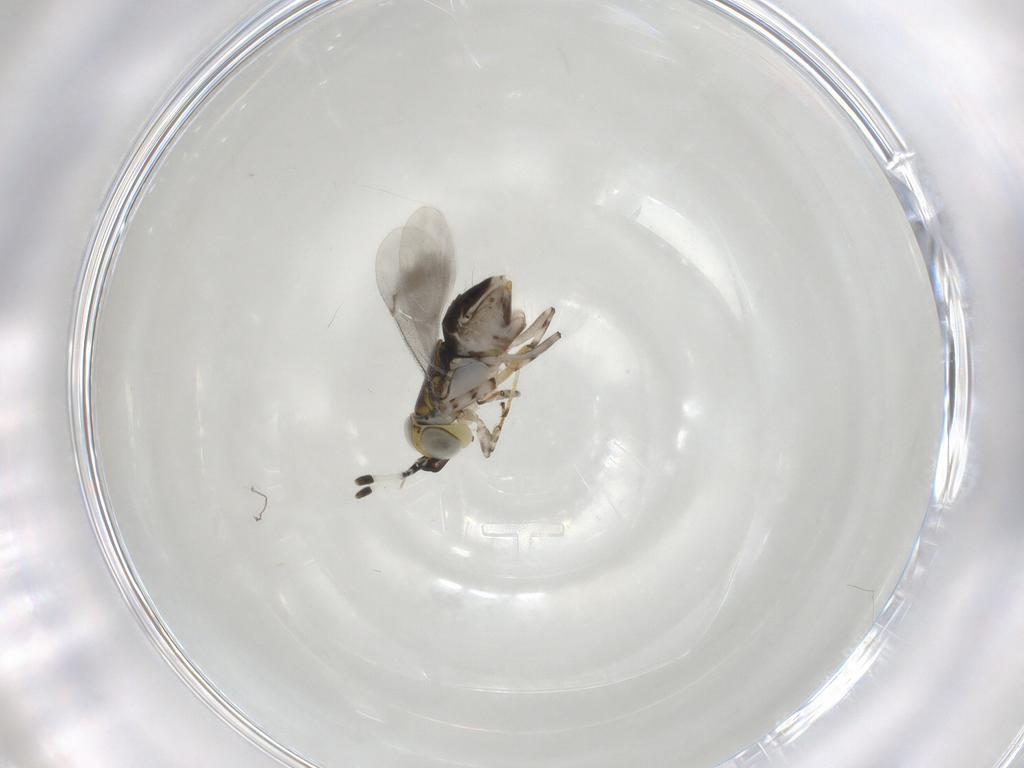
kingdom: Animalia
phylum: Arthropoda
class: Insecta
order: Hymenoptera
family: Encyrtidae
